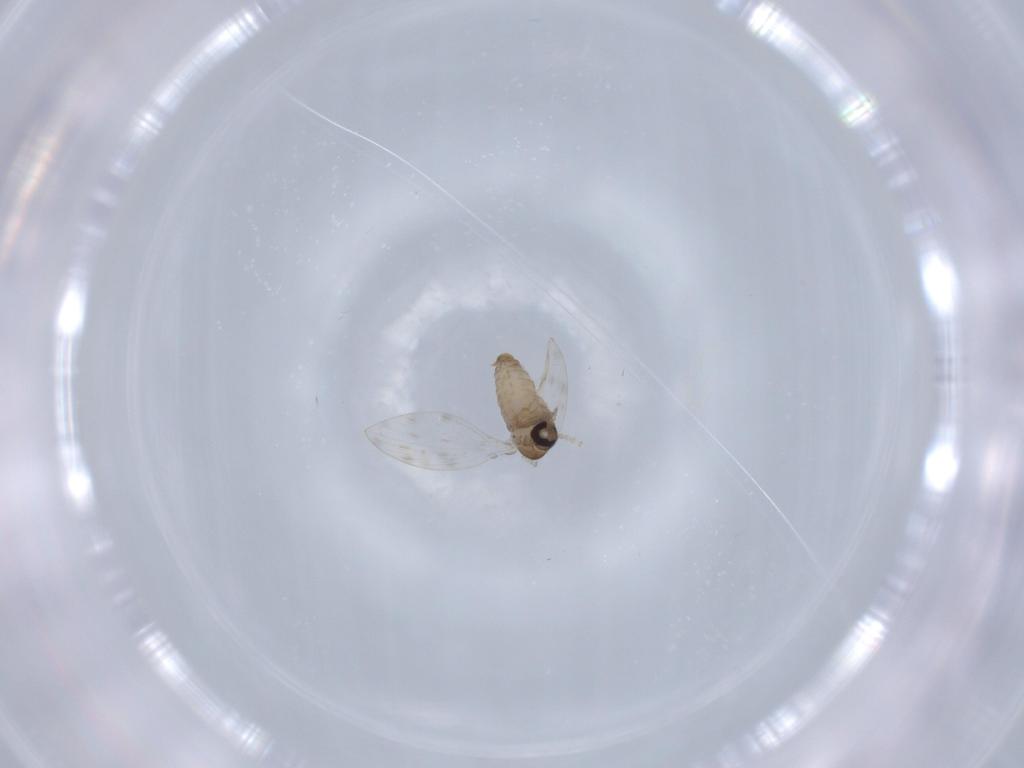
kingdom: Animalia
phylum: Arthropoda
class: Insecta
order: Diptera
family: Psychodidae
